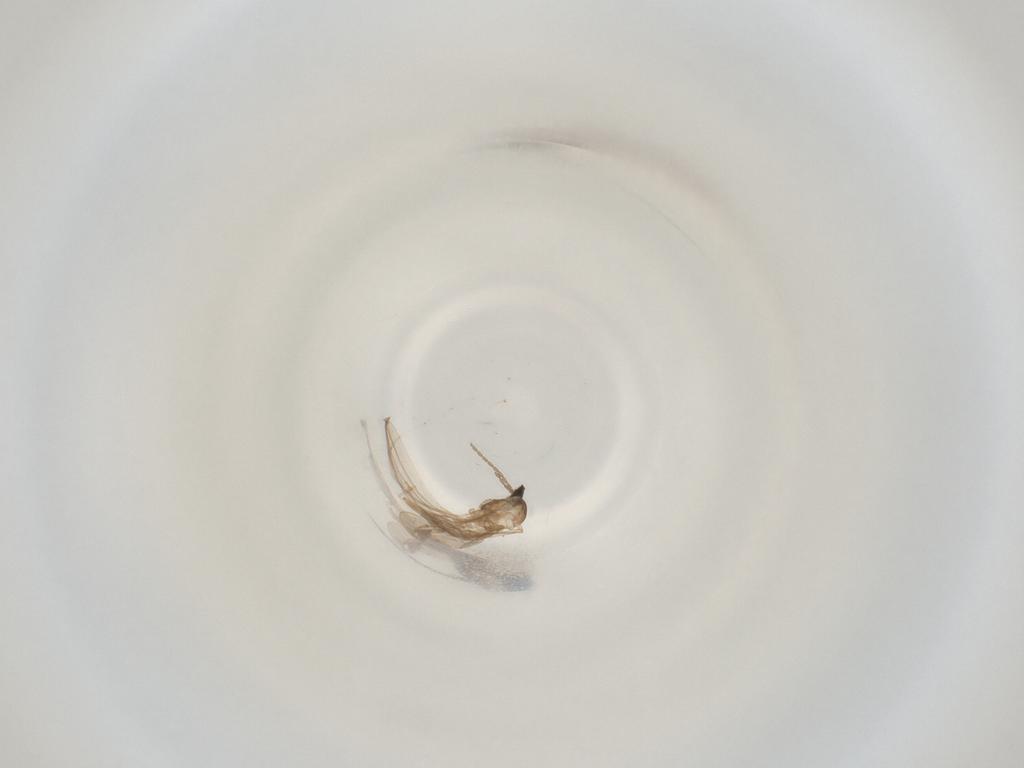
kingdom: Animalia
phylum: Arthropoda
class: Insecta
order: Diptera
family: Cecidomyiidae
